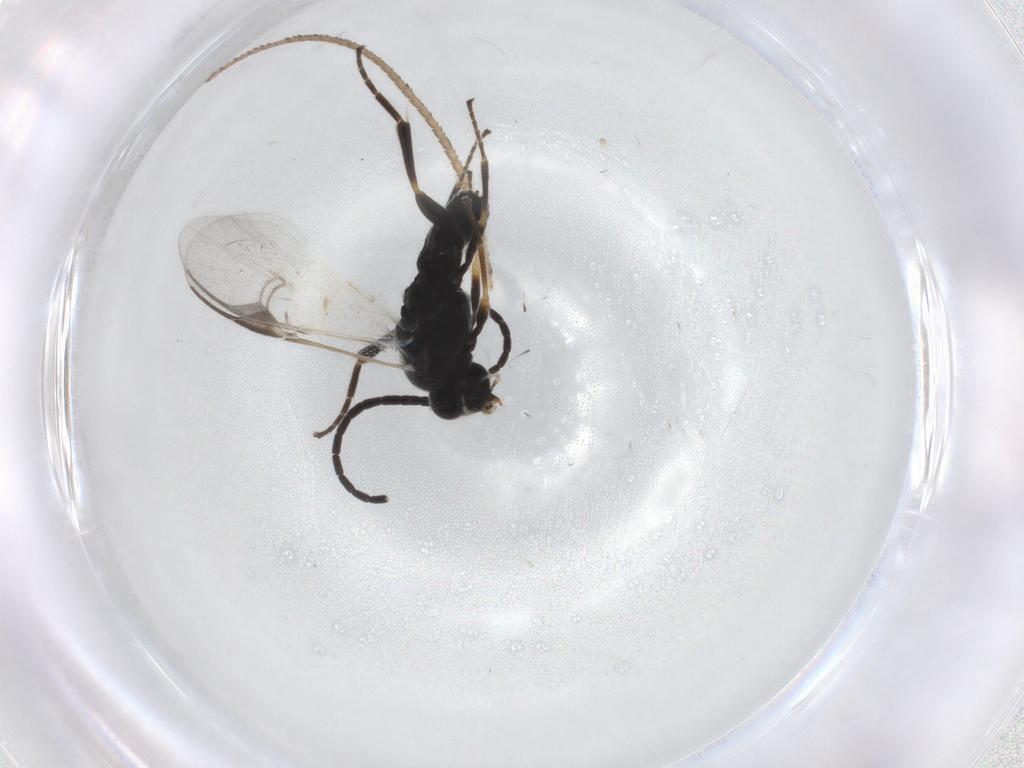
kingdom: Animalia
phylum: Arthropoda
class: Insecta
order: Hymenoptera
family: Braconidae
